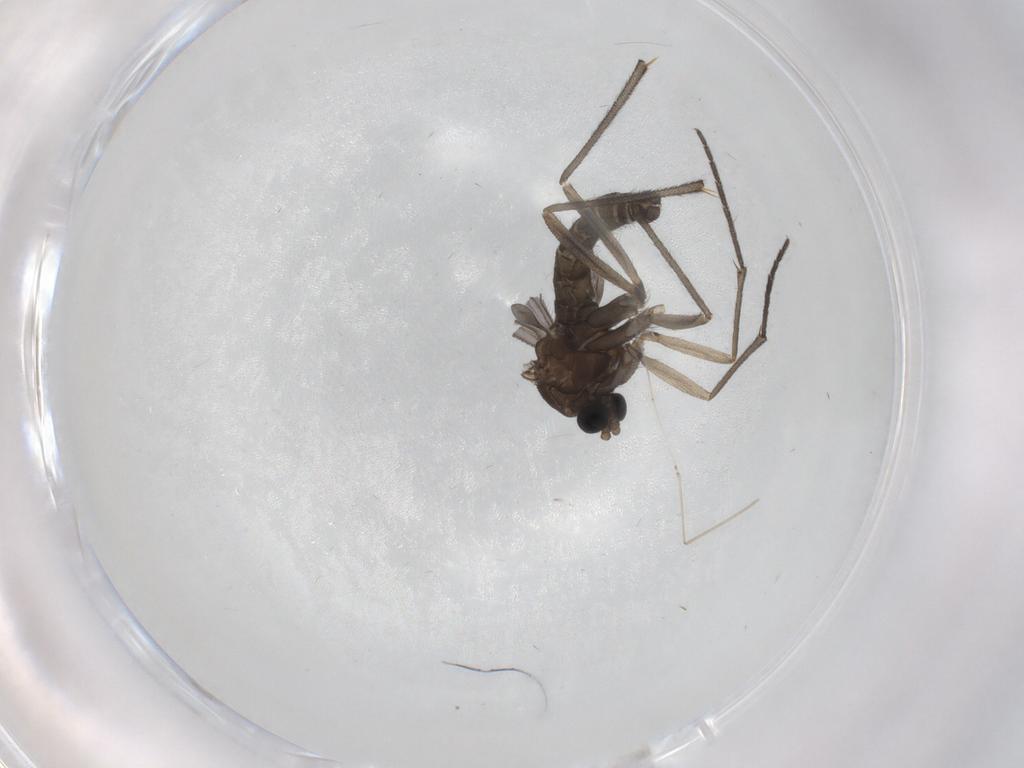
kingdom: Animalia
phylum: Arthropoda
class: Insecta
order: Diptera
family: Sciaridae
